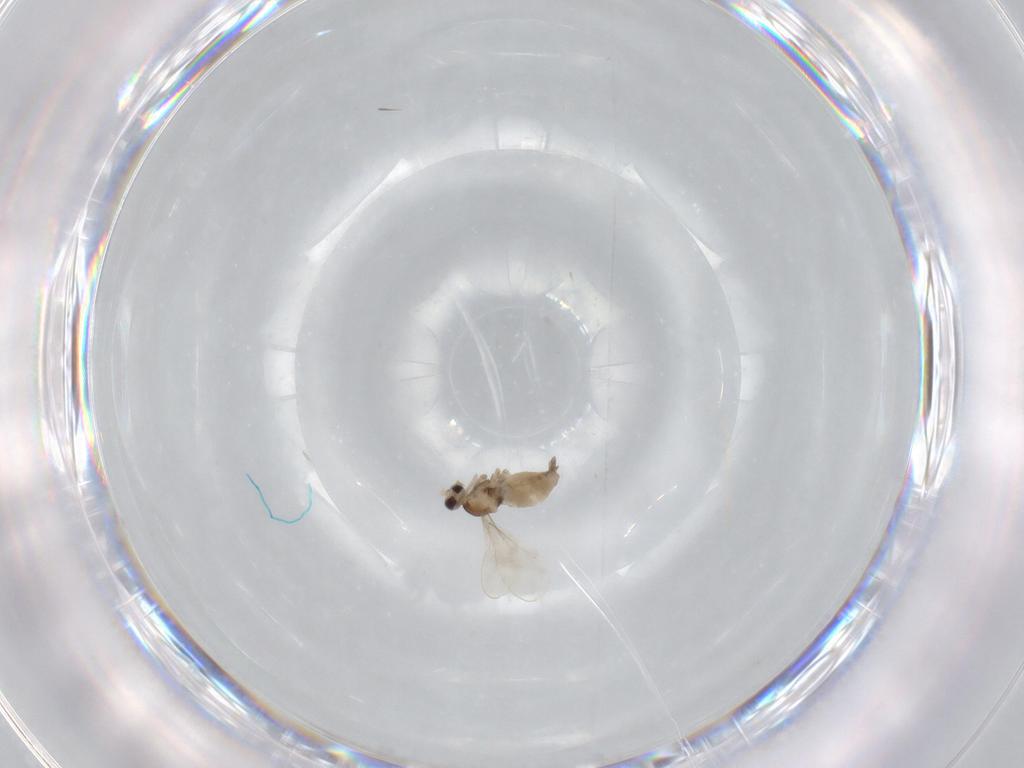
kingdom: Animalia
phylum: Arthropoda
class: Insecta
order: Diptera
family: Cecidomyiidae
